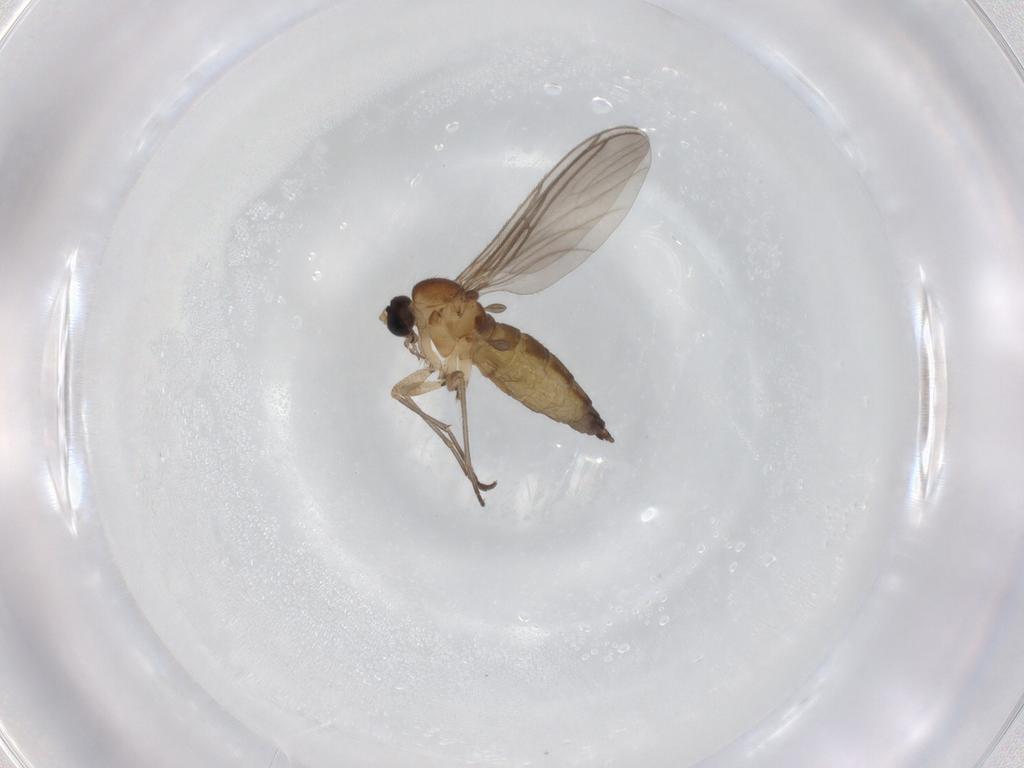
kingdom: Animalia
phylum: Arthropoda
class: Insecta
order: Diptera
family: Sciaridae
